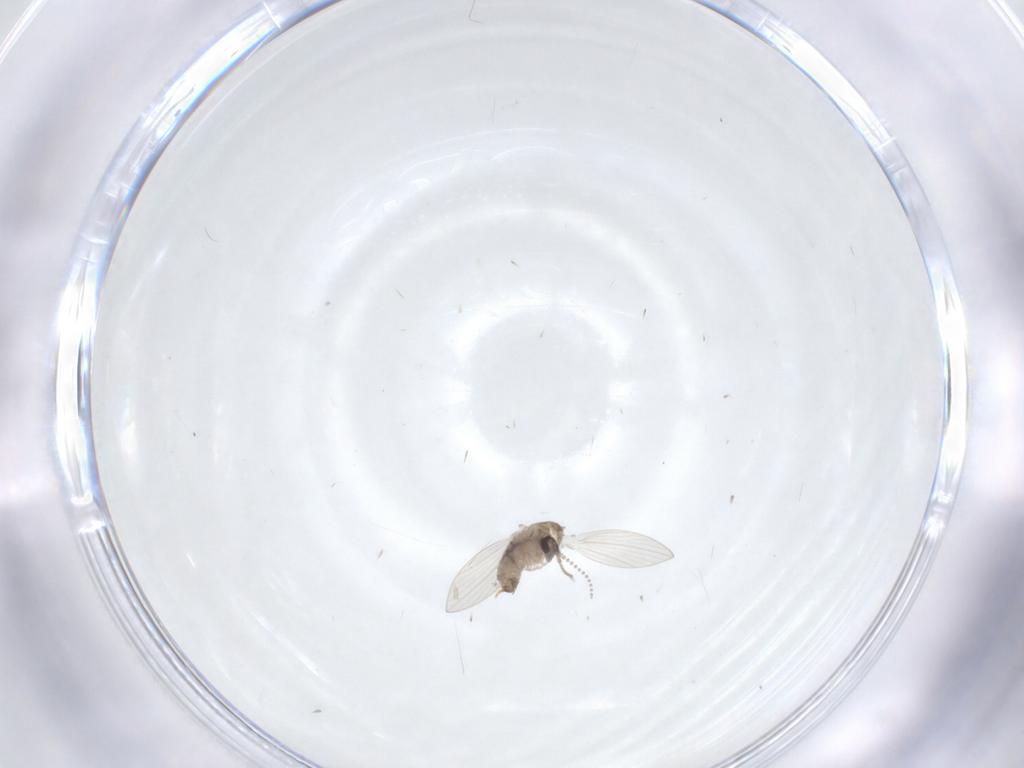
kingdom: Animalia
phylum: Arthropoda
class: Insecta
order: Diptera
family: Psychodidae
